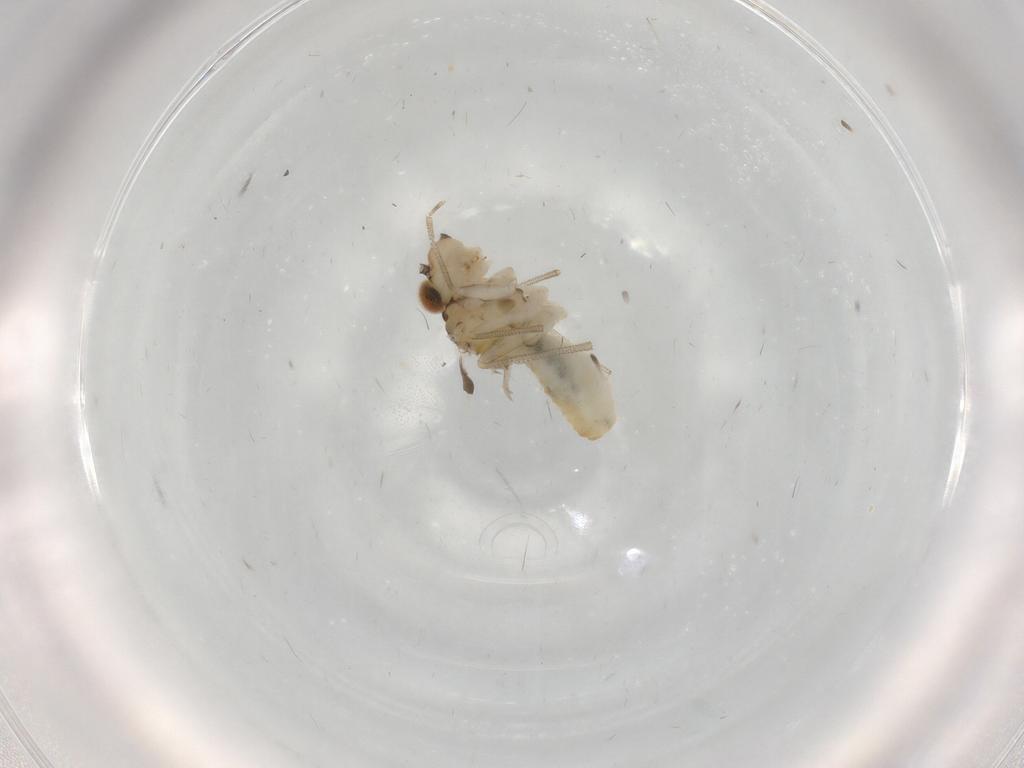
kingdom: Animalia
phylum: Arthropoda
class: Insecta
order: Psocodea
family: Caeciliusidae
